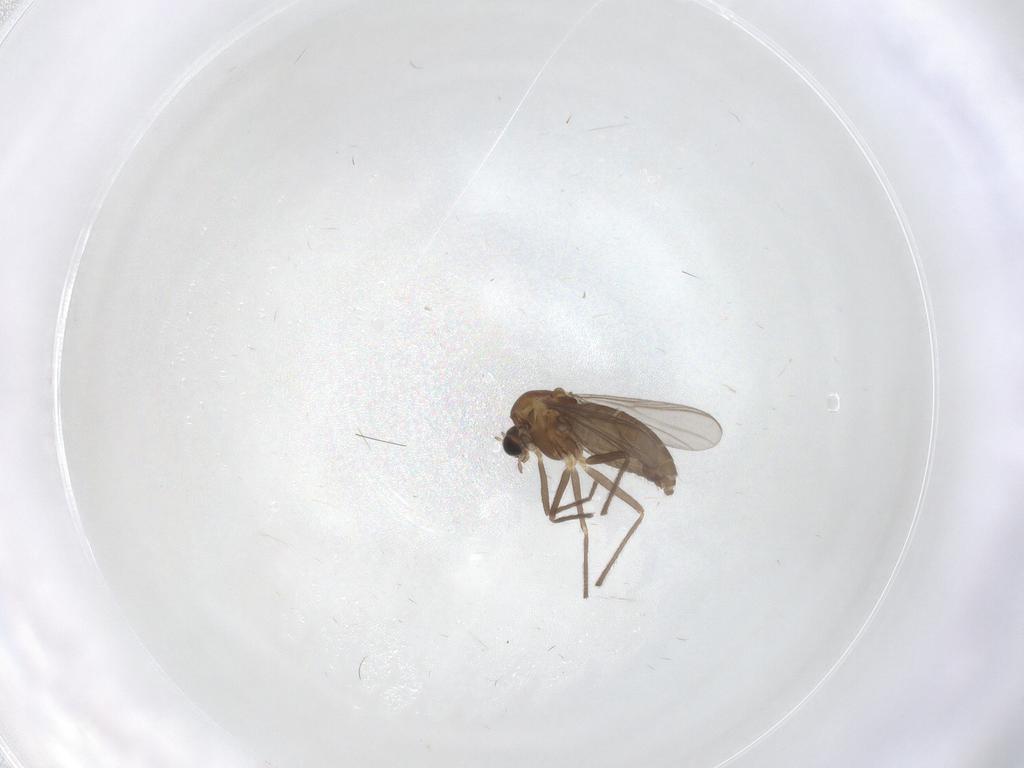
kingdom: Animalia
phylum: Arthropoda
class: Insecta
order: Diptera
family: Chironomidae
